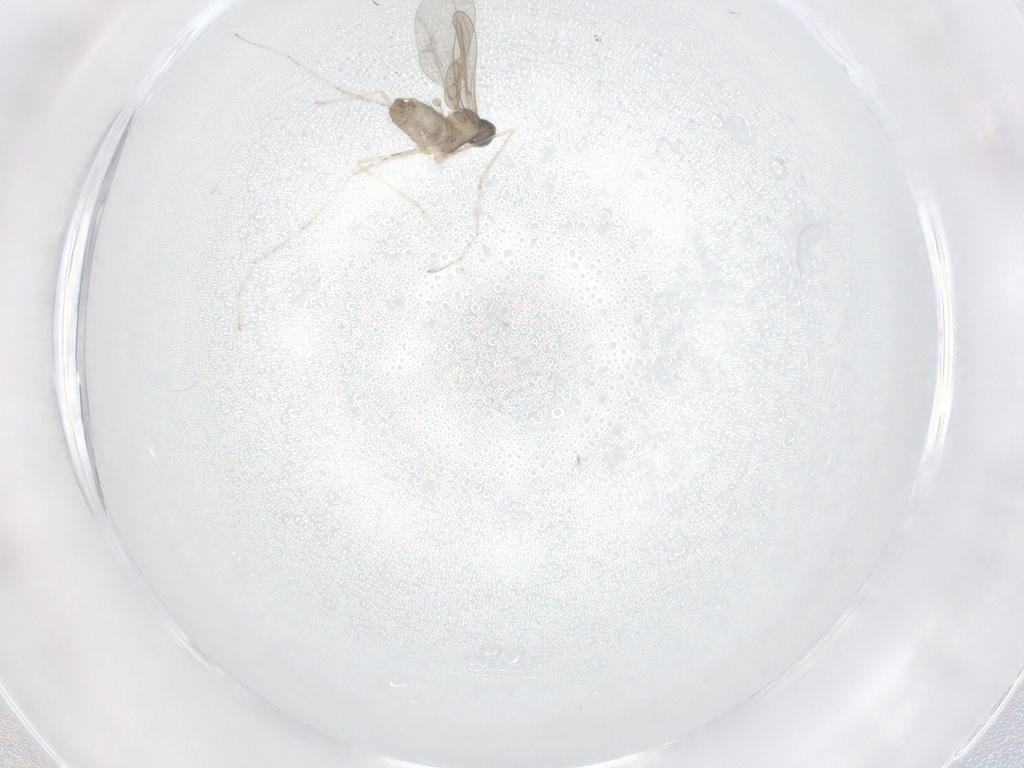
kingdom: Animalia
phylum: Arthropoda
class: Insecta
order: Diptera
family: Cecidomyiidae
